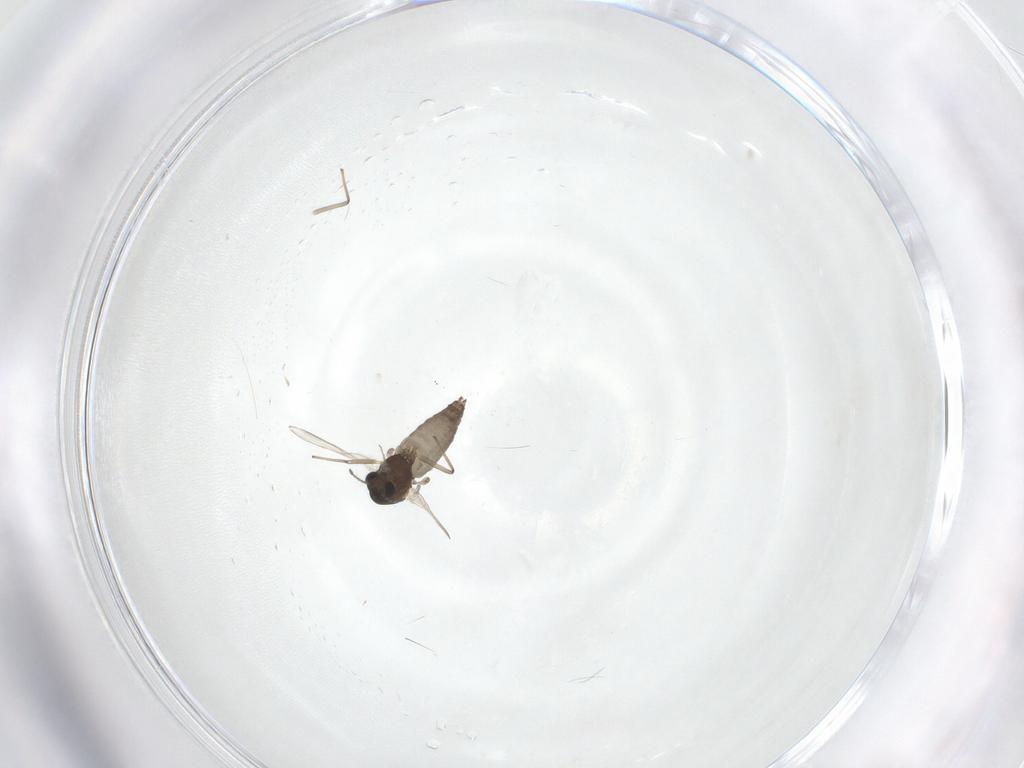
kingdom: Animalia
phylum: Arthropoda
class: Insecta
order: Diptera
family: Chironomidae
